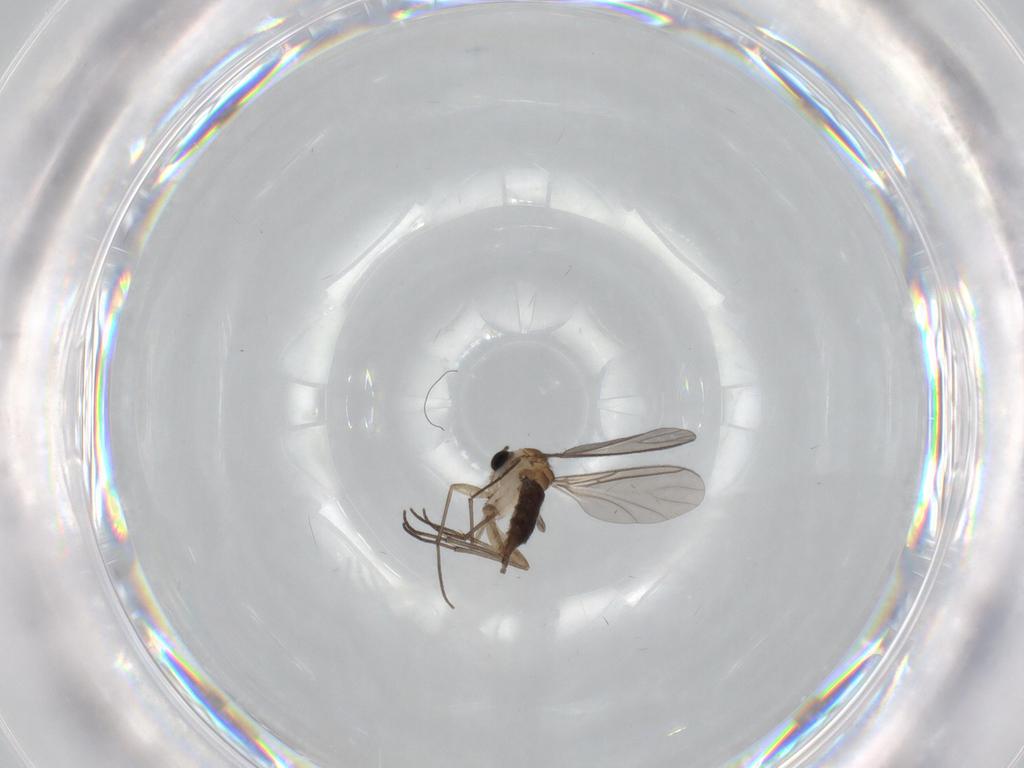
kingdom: Animalia
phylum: Arthropoda
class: Insecta
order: Diptera
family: Sciaridae
